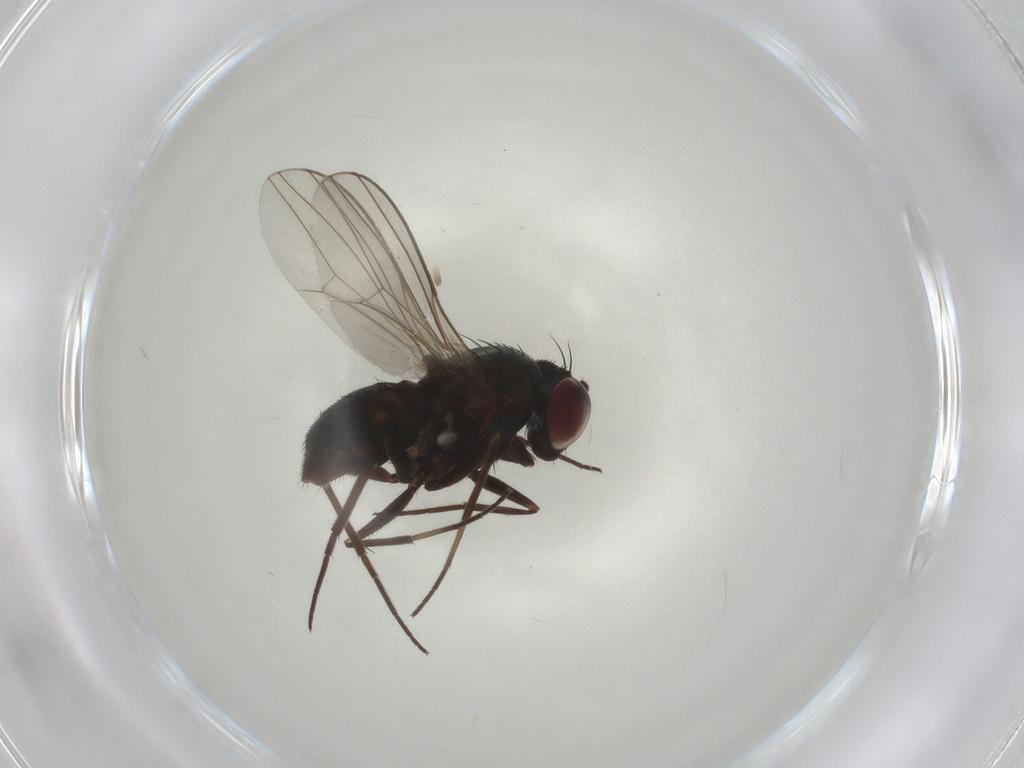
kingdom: Animalia
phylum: Arthropoda
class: Insecta
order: Diptera
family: Dolichopodidae
